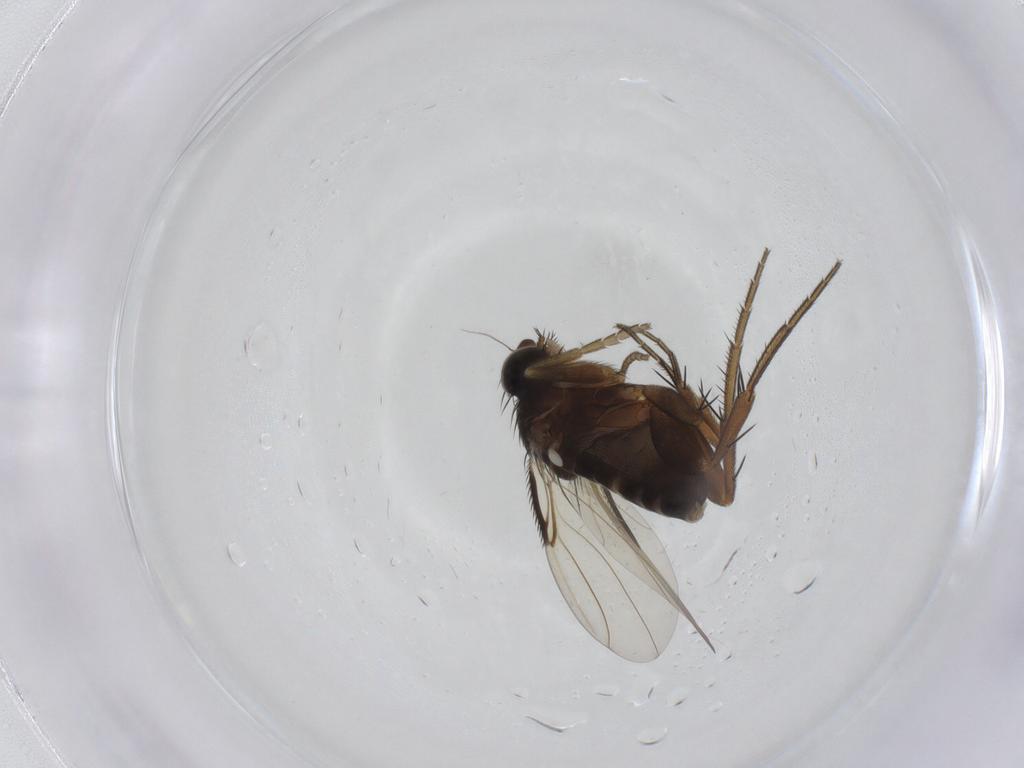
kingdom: Animalia
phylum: Arthropoda
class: Insecta
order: Diptera
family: Phoridae
